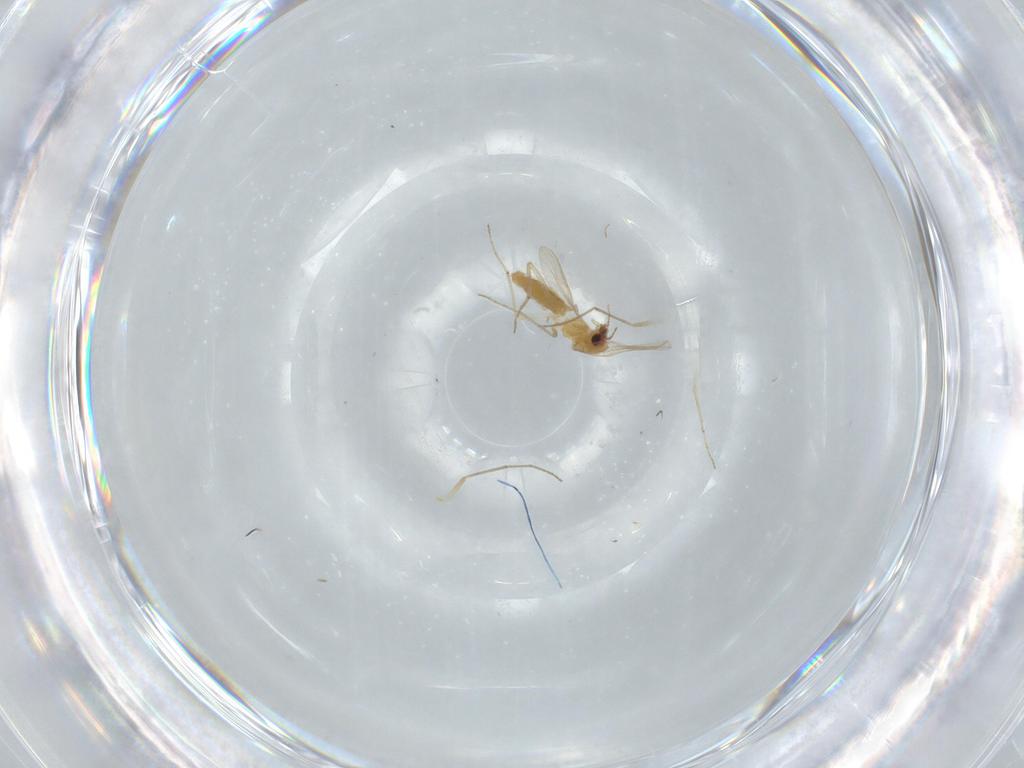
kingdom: Animalia
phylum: Arthropoda
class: Insecta
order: Diptera
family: Chironomidae
